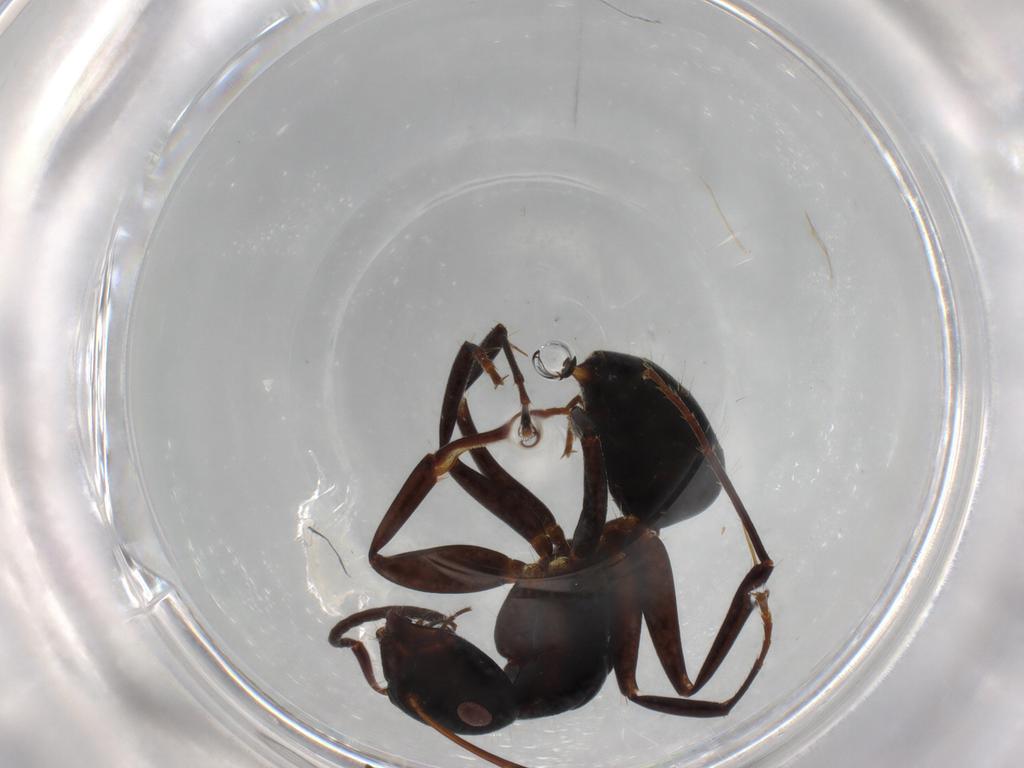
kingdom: Animalia
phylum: Arthropoda
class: Insecta
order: Hymenoptera
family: Formicidae
